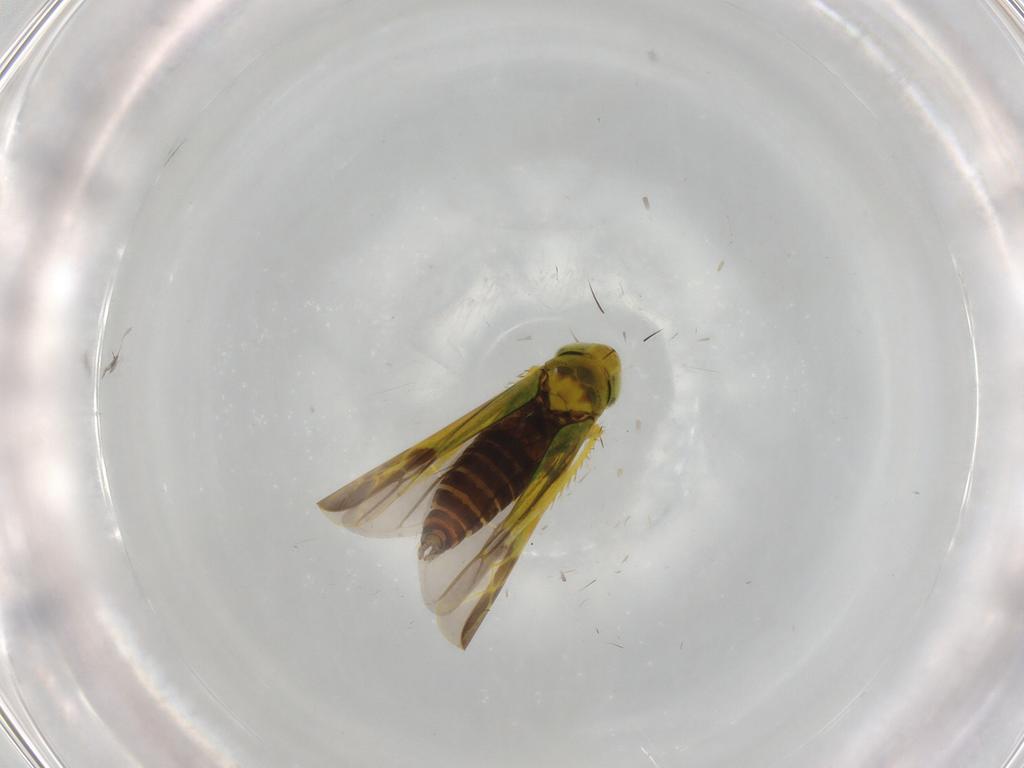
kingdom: Animalia
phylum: Arthropoda
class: Insecta
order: Hemiptera
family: Cicadellidae
